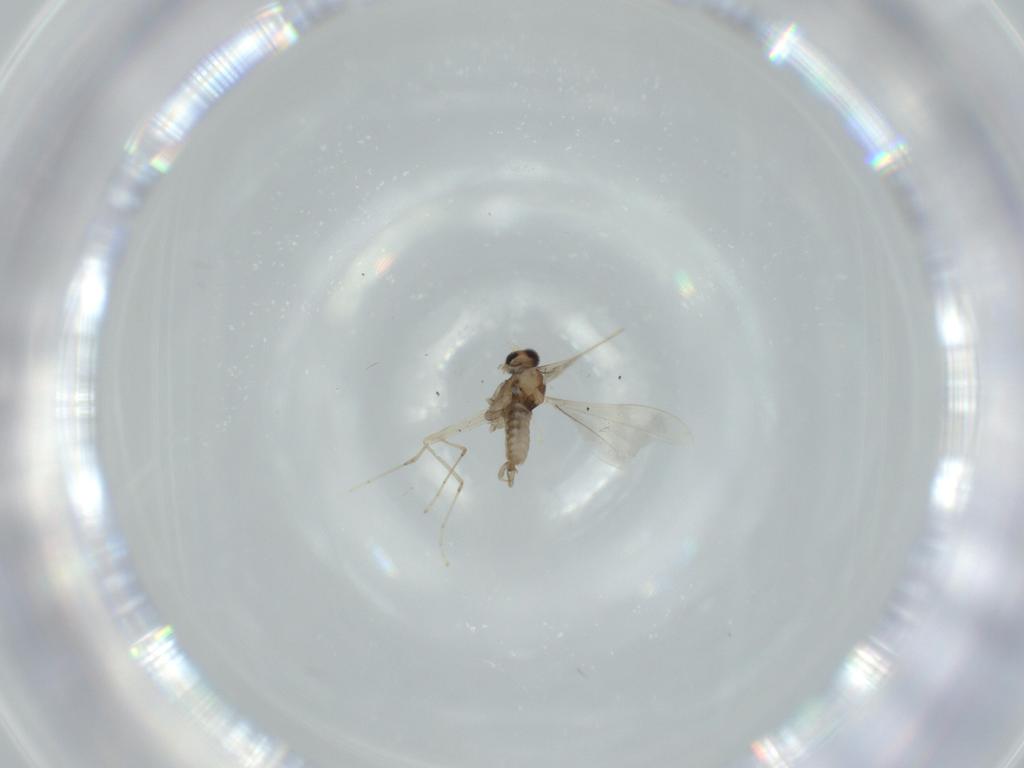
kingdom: Animalia
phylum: Arthropoda
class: Insecta
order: Diptera
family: Cecidomyiidae
